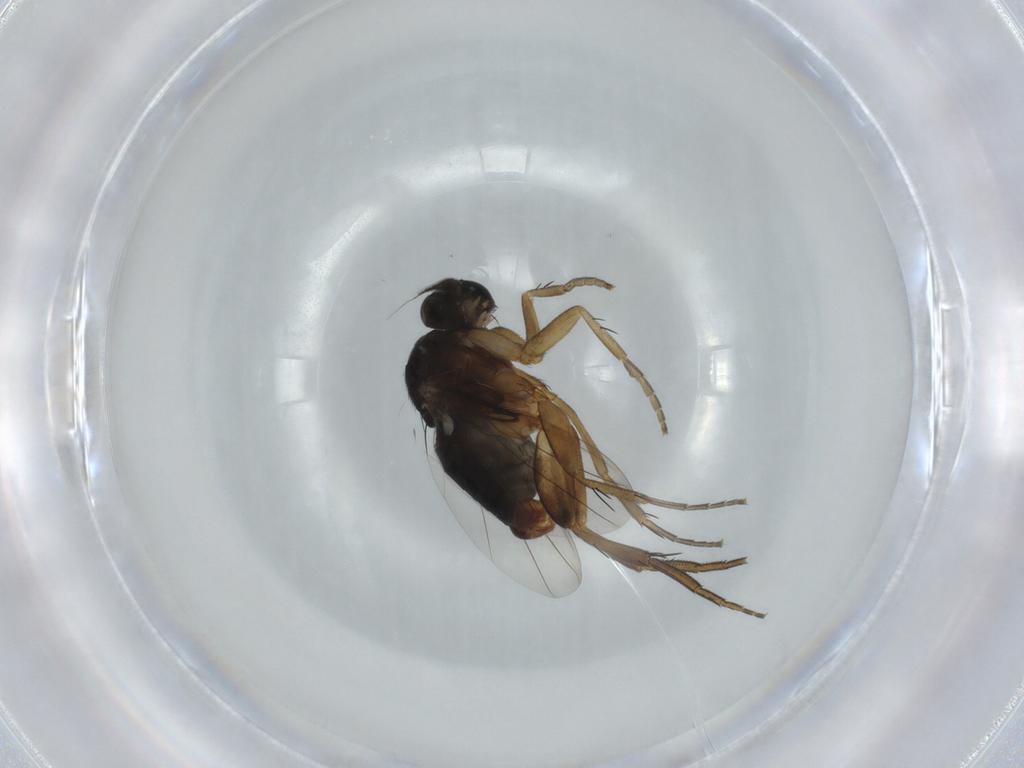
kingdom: Animalia
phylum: Arthropoda
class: Insecta
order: Diptera
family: Phoridae
